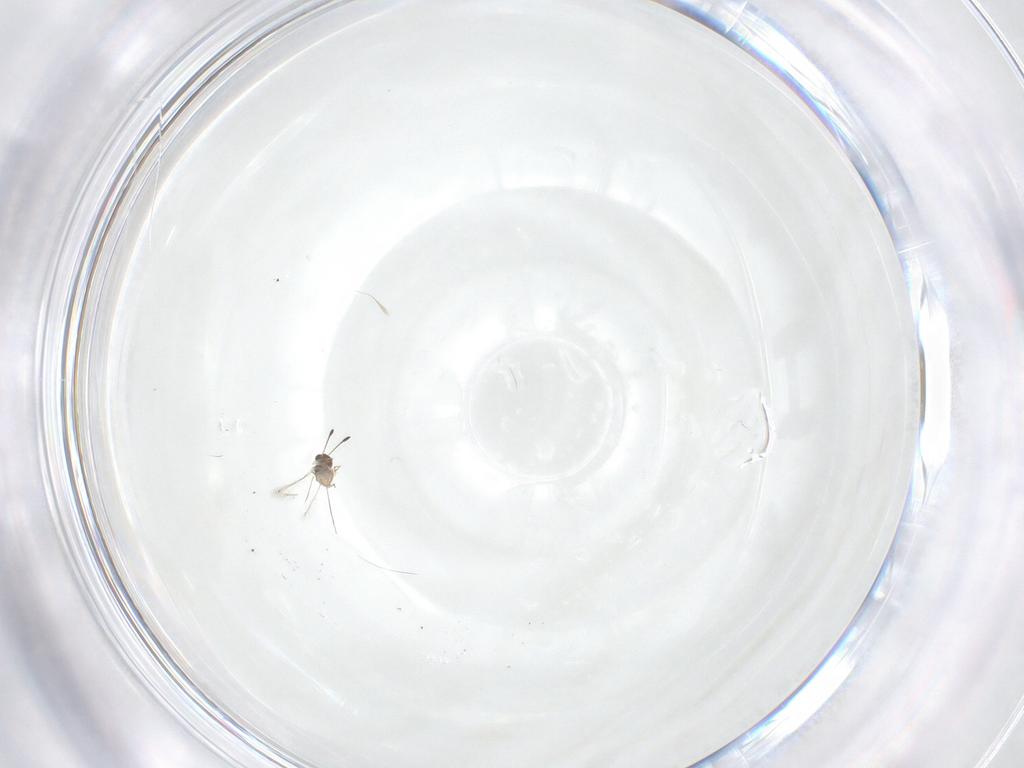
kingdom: Animalia
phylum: Arthropoda
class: Insecta
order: Hymenoptera
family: Mymaridae
